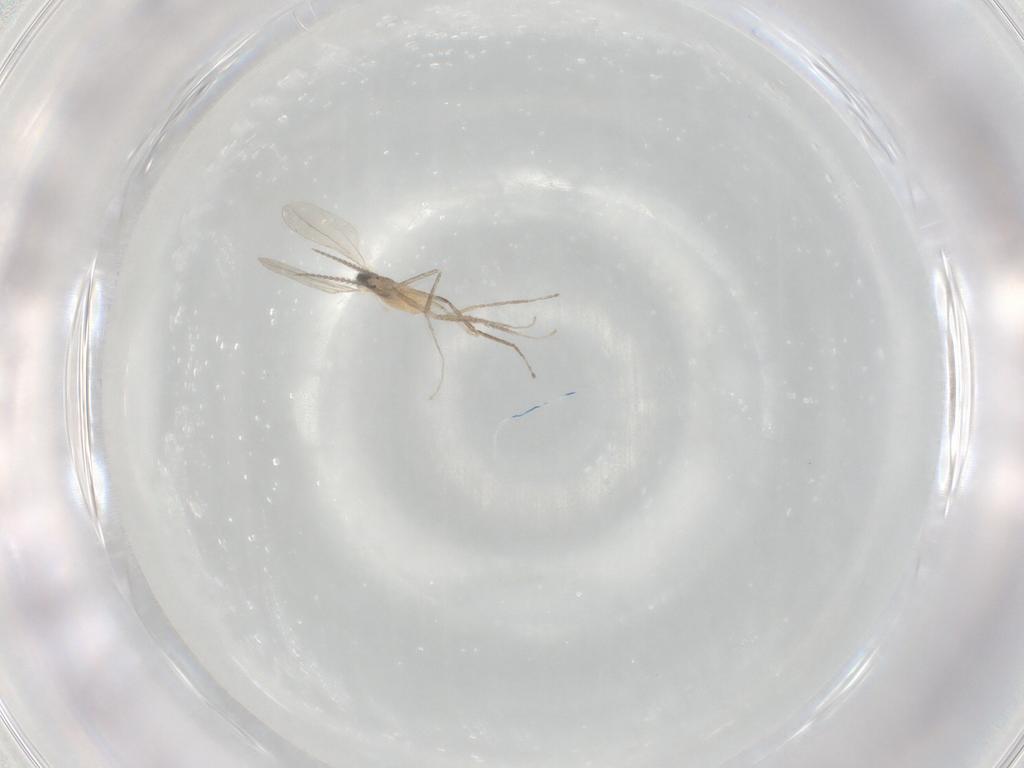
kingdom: Animalia
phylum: Arthropoda
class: Insecta
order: Diptera
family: Cecidomyiidae
